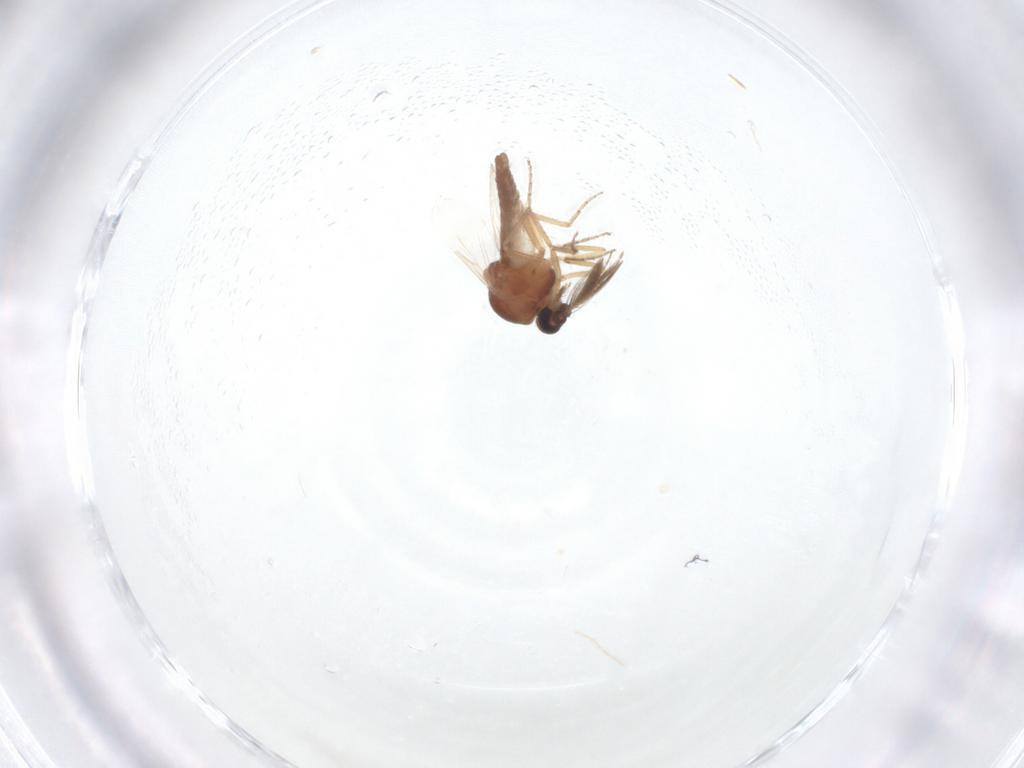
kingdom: Animalia
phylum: Arthropoda
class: Insecta
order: Diptera
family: Ceratopogonidae
